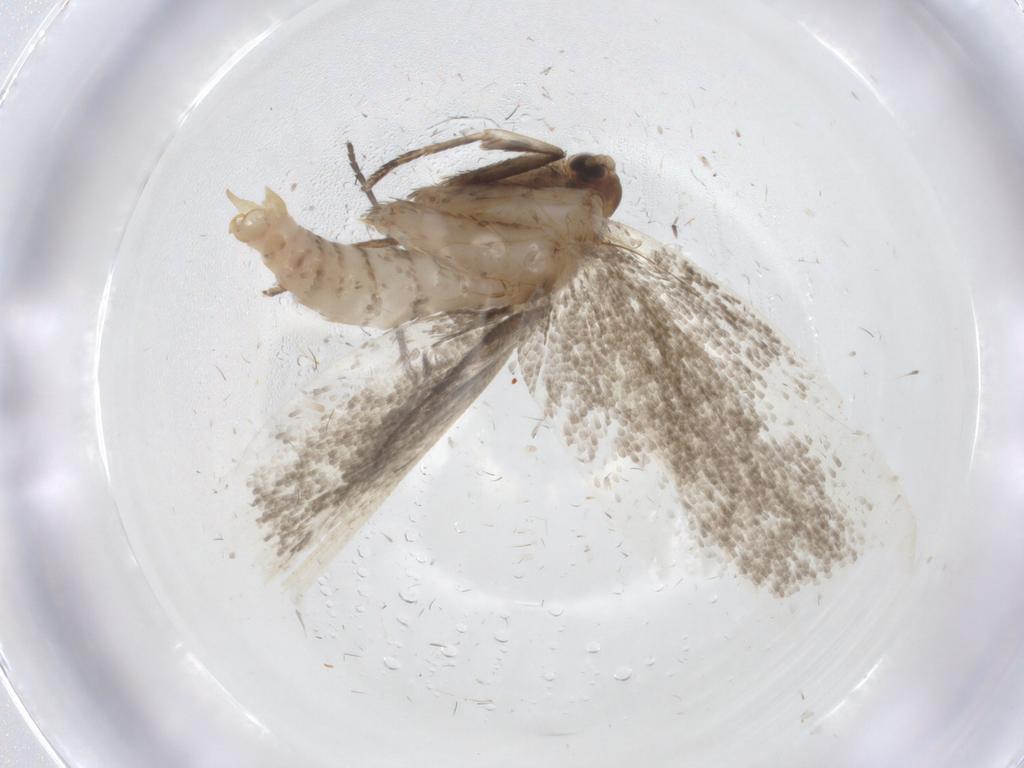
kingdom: Animalia
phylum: Arthropoda
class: Insecta
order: Lepidoptera
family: Oecophoridae
